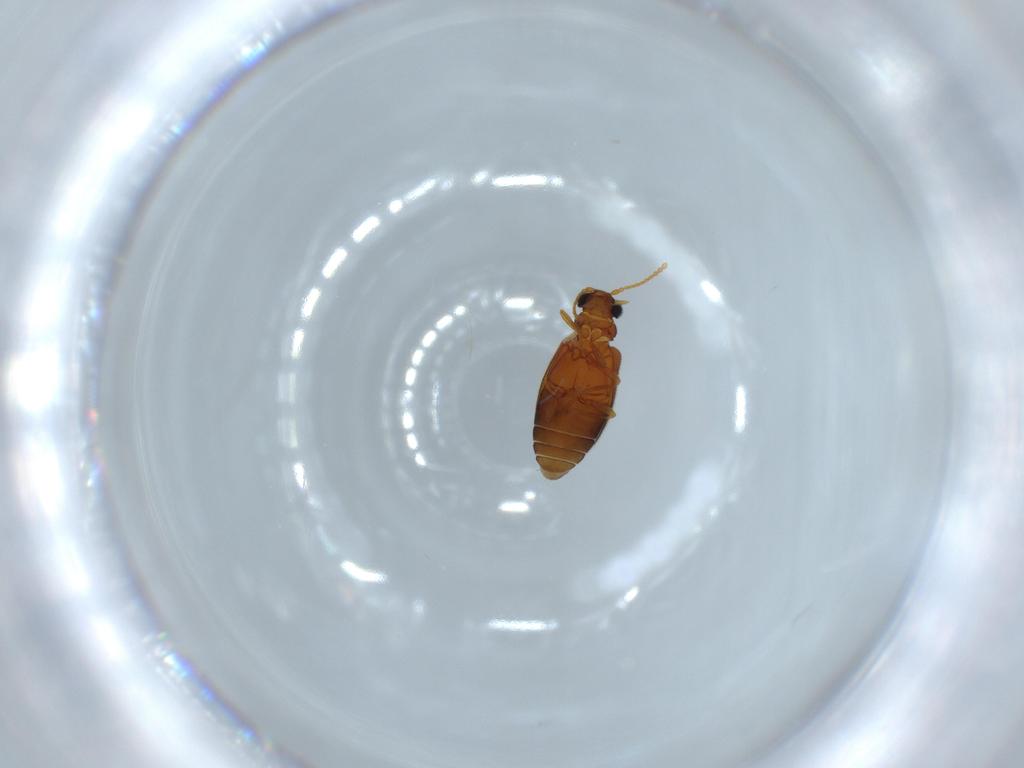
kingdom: Animalia
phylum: Arthropoda
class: Insecta
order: Coleoptera
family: Aderidae
